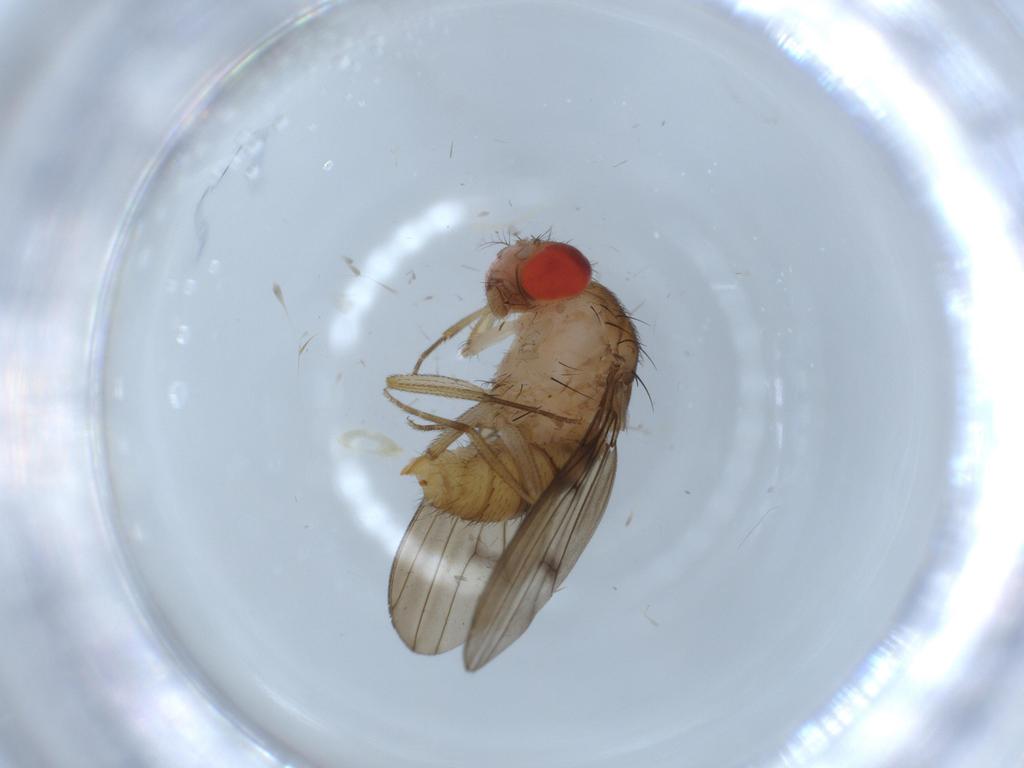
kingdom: Animalia
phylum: Arthropoda
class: Insecta
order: Diptera
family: Drosophilidae
